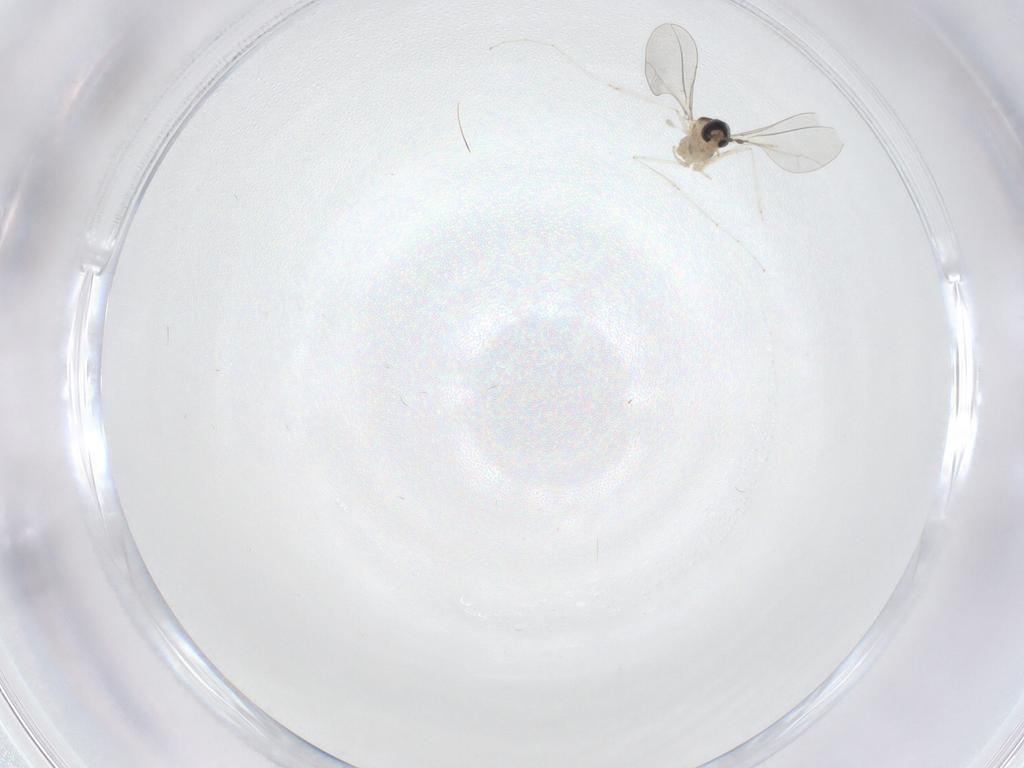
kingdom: Animalia
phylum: Arthropoda
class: Insecta
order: Diptera
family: Cecidomyiidae
